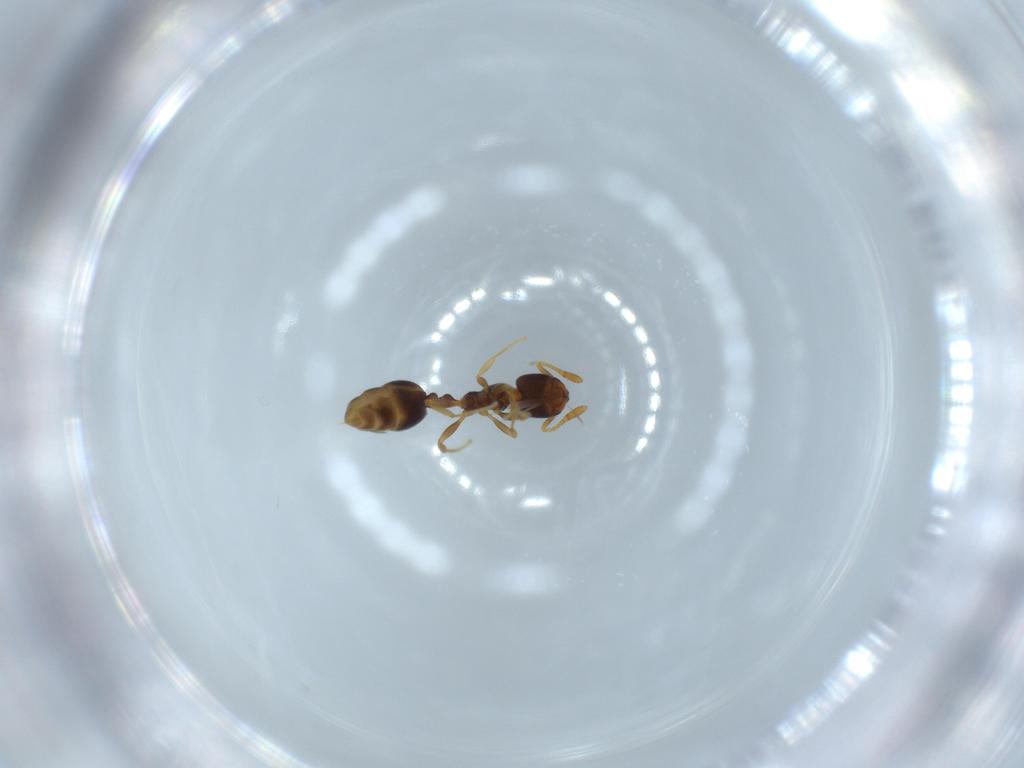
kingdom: Animalia
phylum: Arthropoda
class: Insecta
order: Hymenoptera
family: Formicidae
